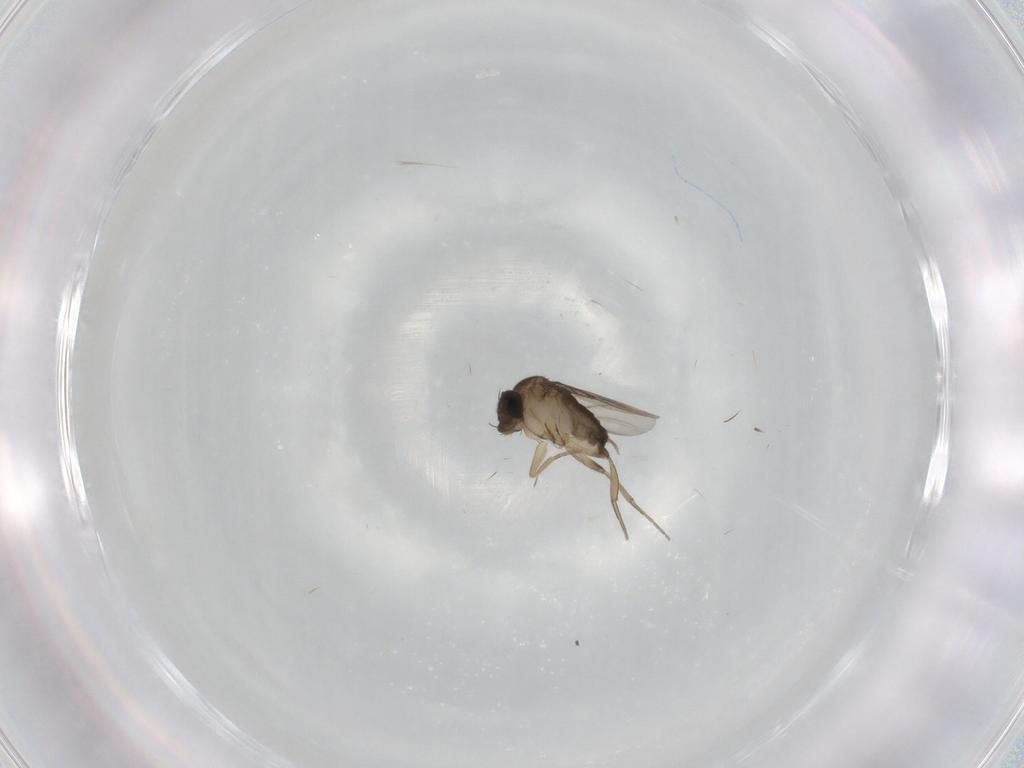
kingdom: Animalia
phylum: Arthropoda
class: Insecta
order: Diptera
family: Phoridae
